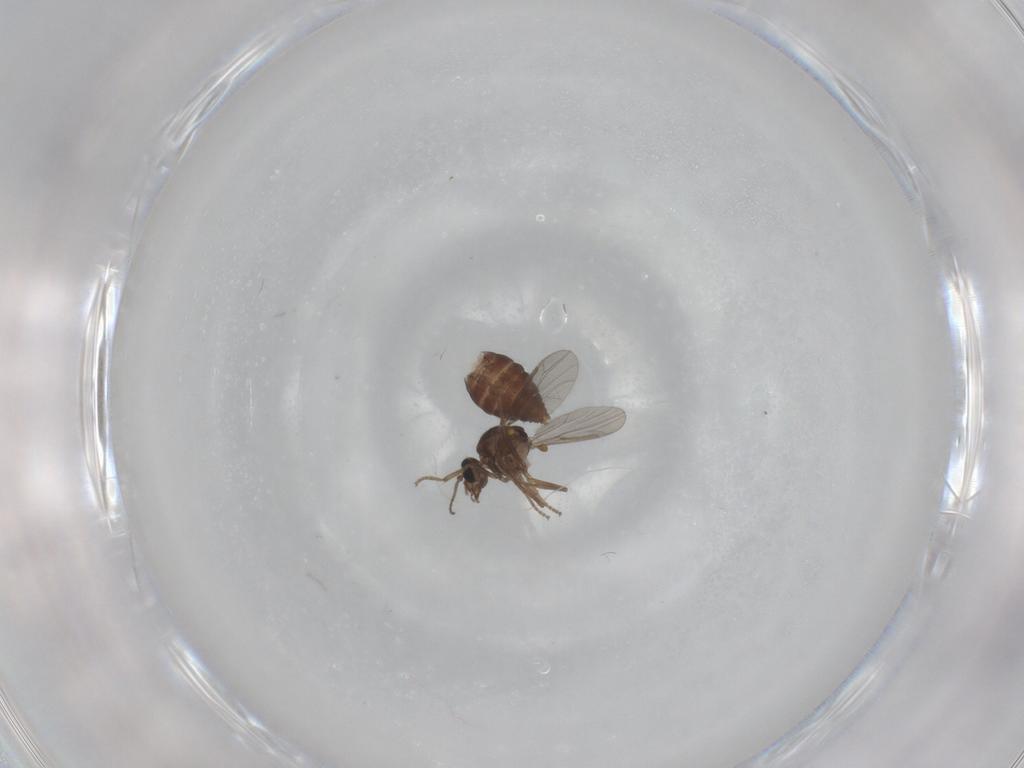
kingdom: Animalia
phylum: Arthropoda
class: Insecta
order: Diptera
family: Ceratopogonidae
